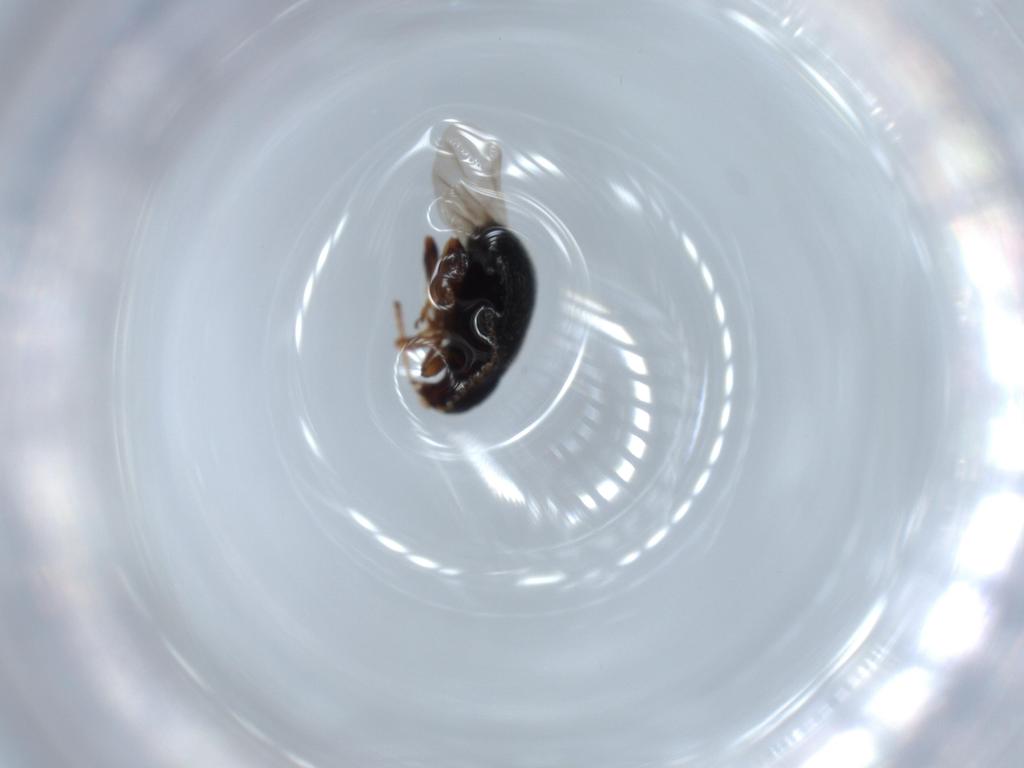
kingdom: Animalia
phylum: Arthropoda
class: Insecta
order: Coleoptera
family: Chrysomelidae
